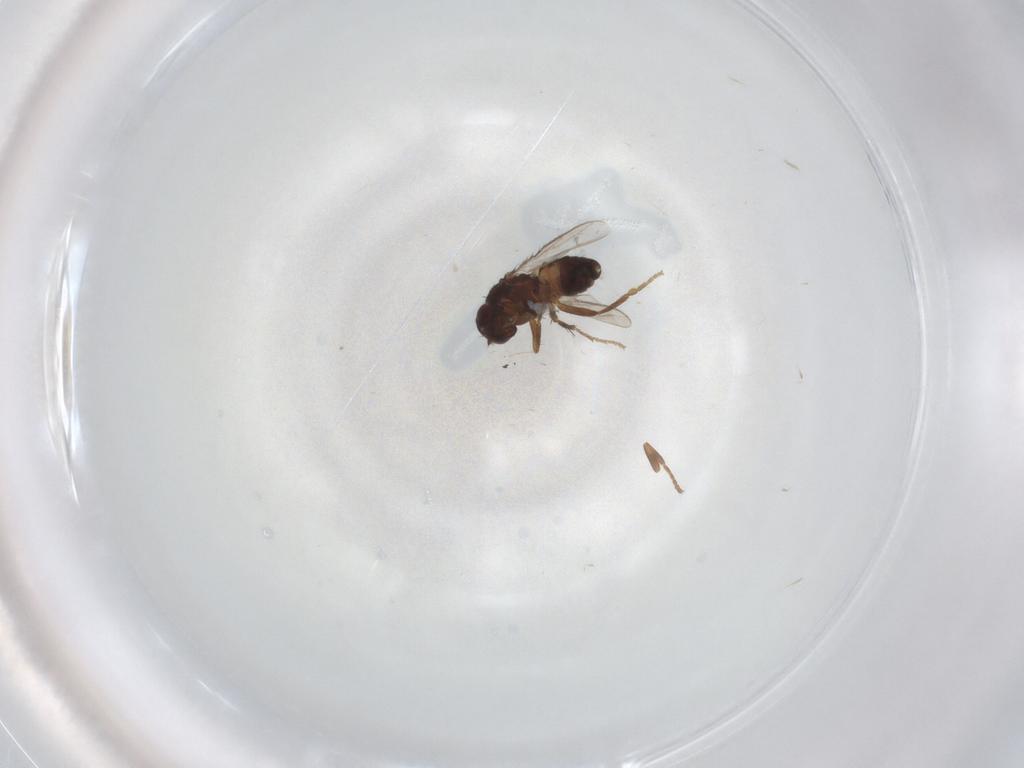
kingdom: Animalia
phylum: Arthropoda
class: Insecta
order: Diptera
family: Dolichopodidae
